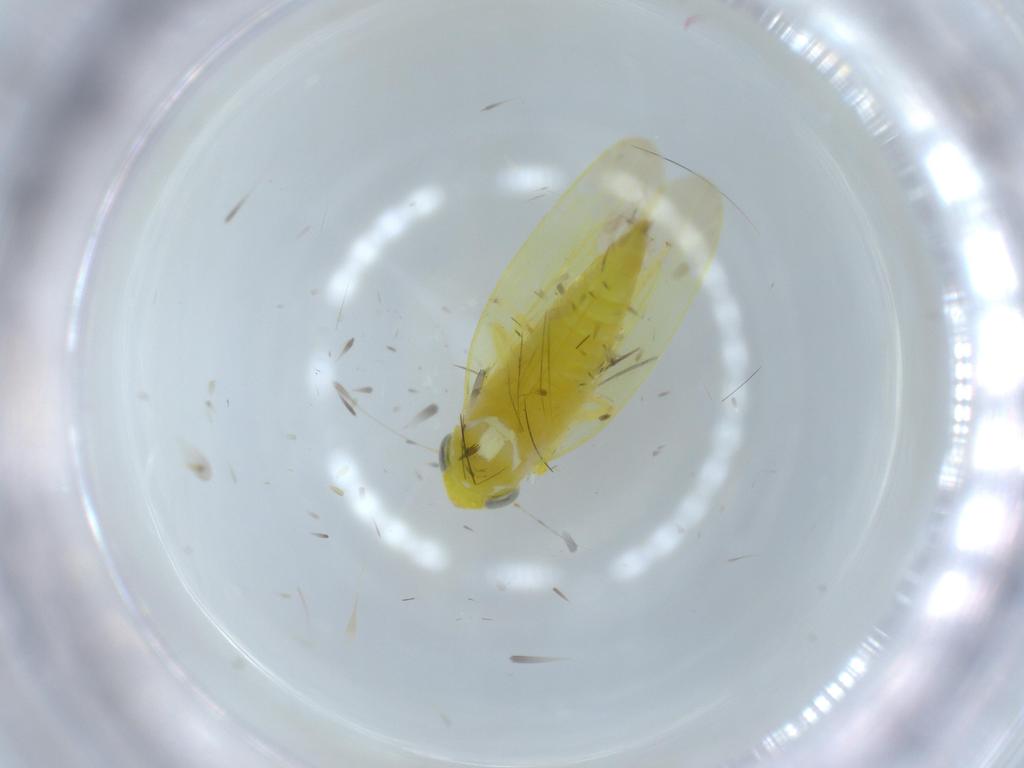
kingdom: Animalia
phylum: Arthropoda
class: Insecta
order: Hemiptera
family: Cicadellidae
